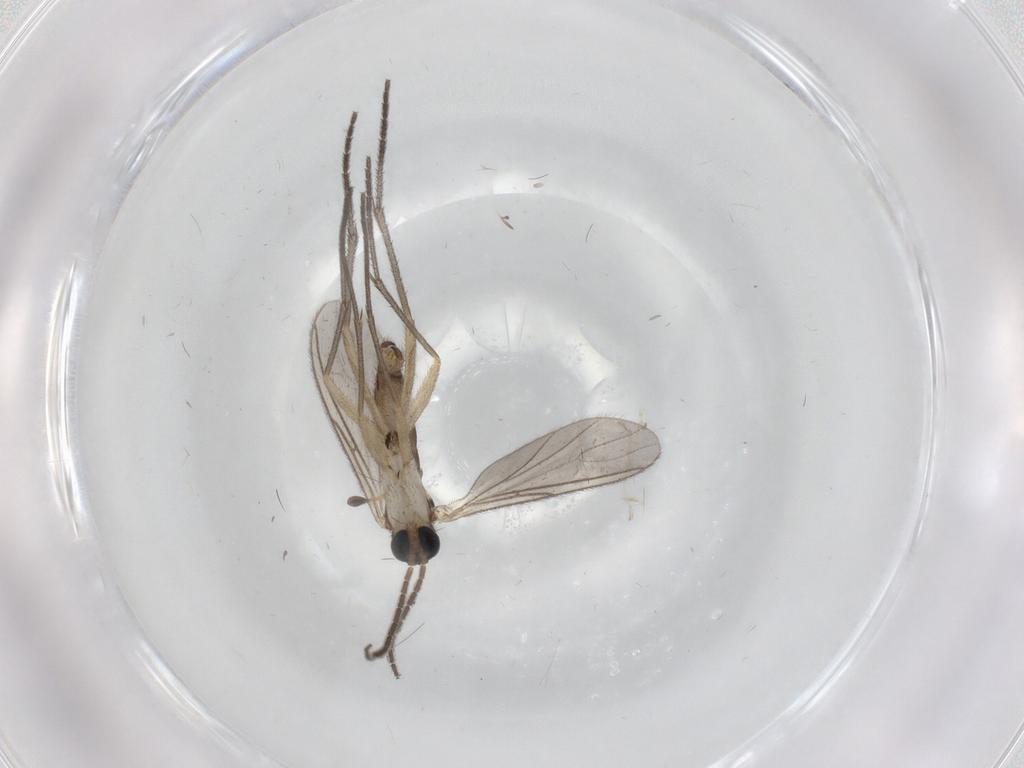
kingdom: Animalia
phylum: Arthropoda
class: Insecta
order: Diptera
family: Sciaridae
